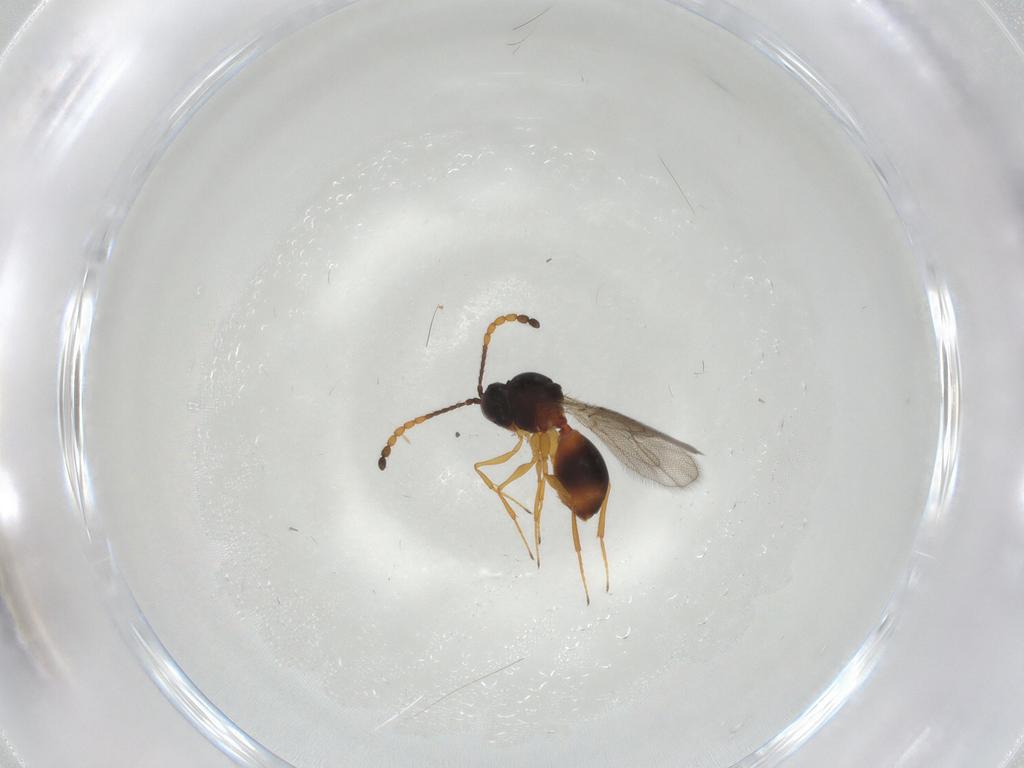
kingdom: Animalia
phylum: Arthropoda
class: Insecta
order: Hymenoptera
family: Figitidae
